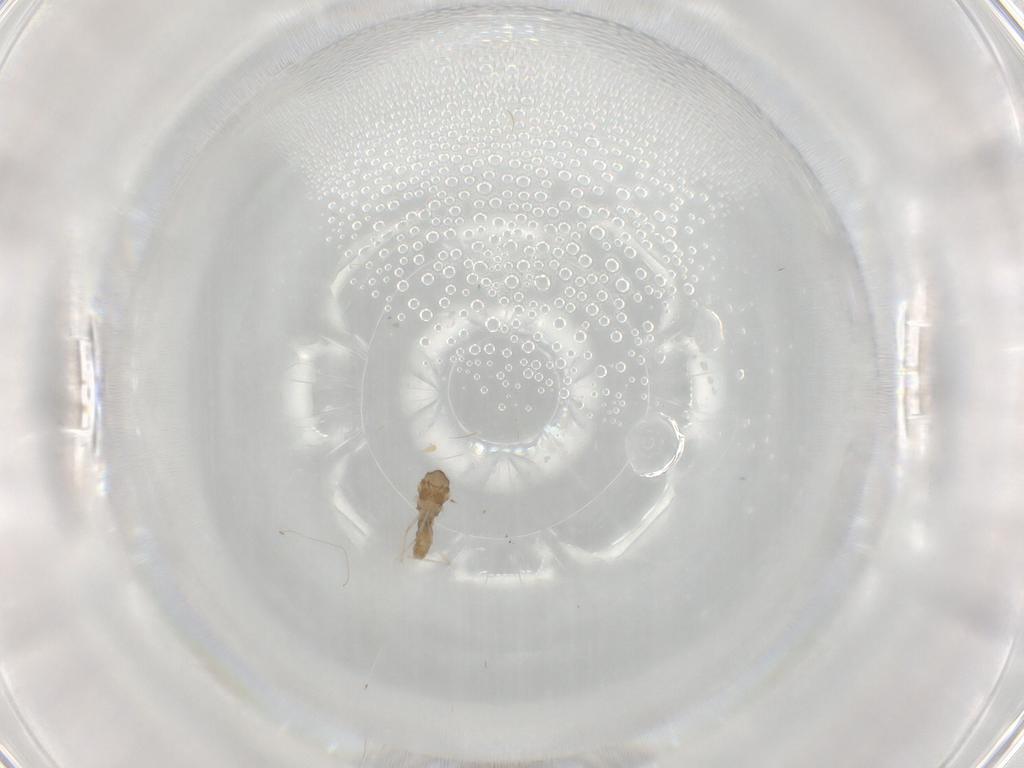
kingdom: Animalia
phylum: Arthropoda
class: Insecta
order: Diptera
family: Cecidomyiidae
